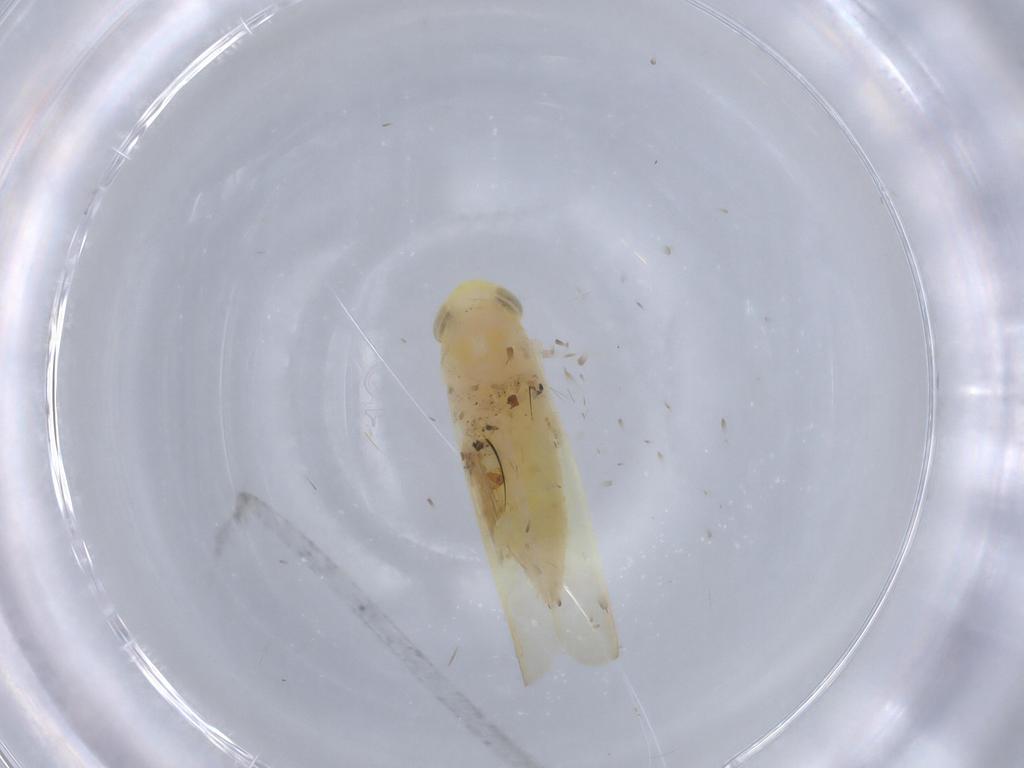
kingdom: Animalia
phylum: Arthropoda
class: Insecta
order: Hemiptera
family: Cicadellidae
